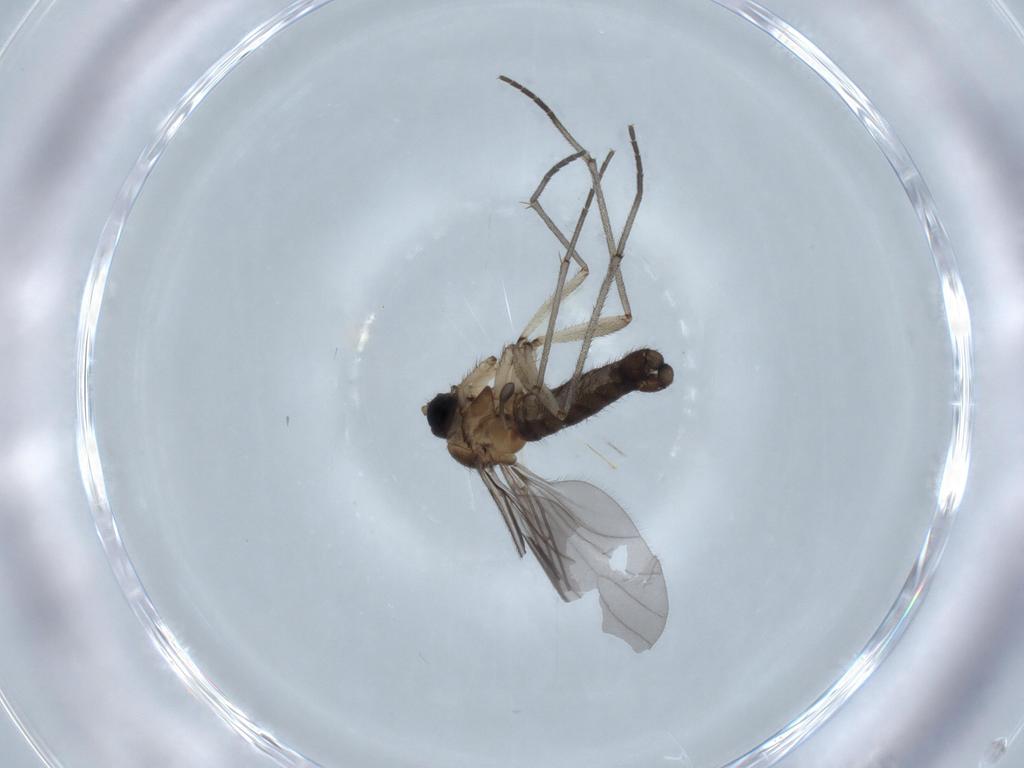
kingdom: Animalia
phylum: Arthropoda
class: Insecta
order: Diptera
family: Sciaridae
